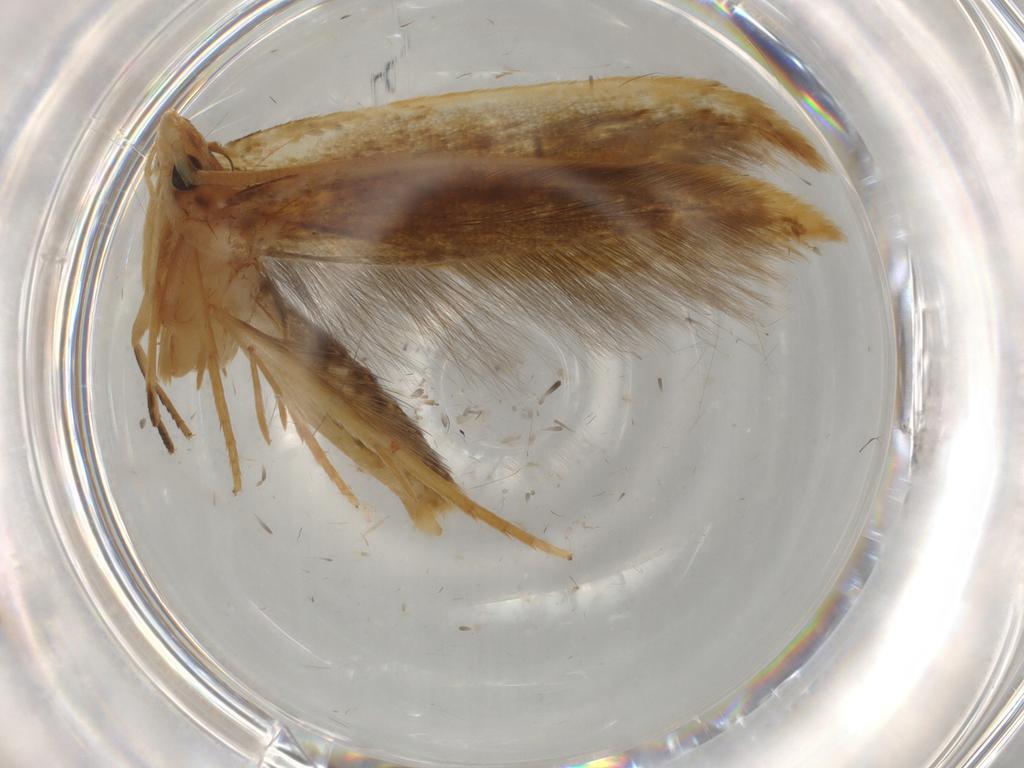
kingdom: Animalia
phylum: Arthropoda
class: Insecta
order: Lepidoptera
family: Tineidae
